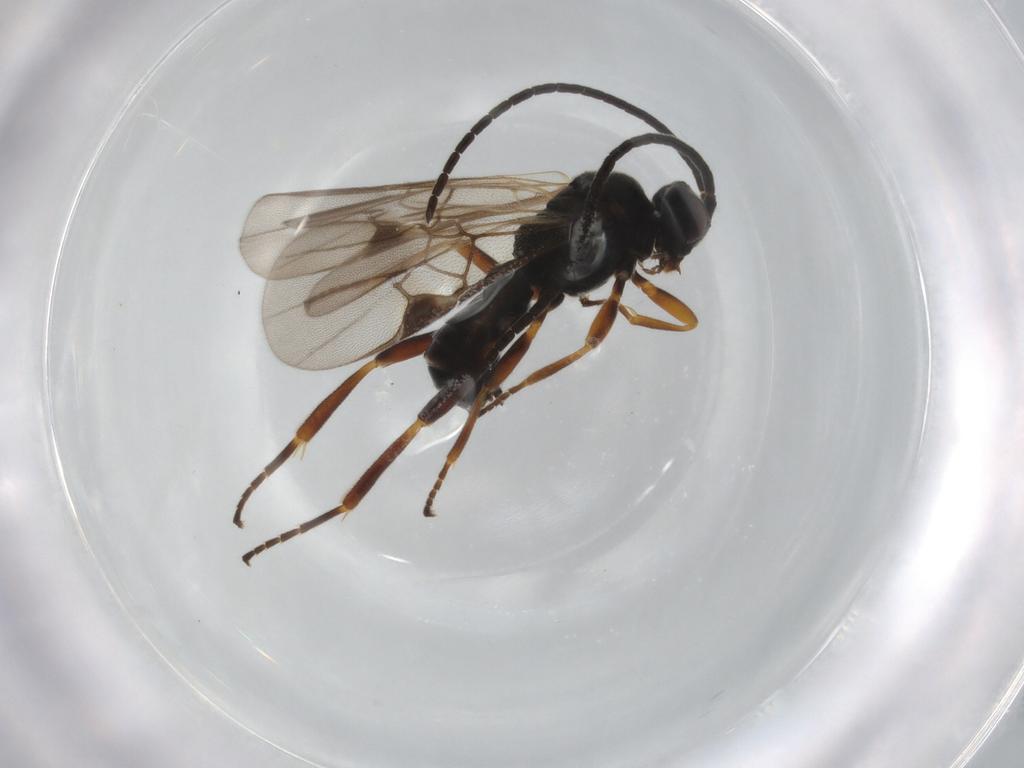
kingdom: Animalia
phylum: Arthropoda
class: Insecta
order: Hymenoptera
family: Braconidae
